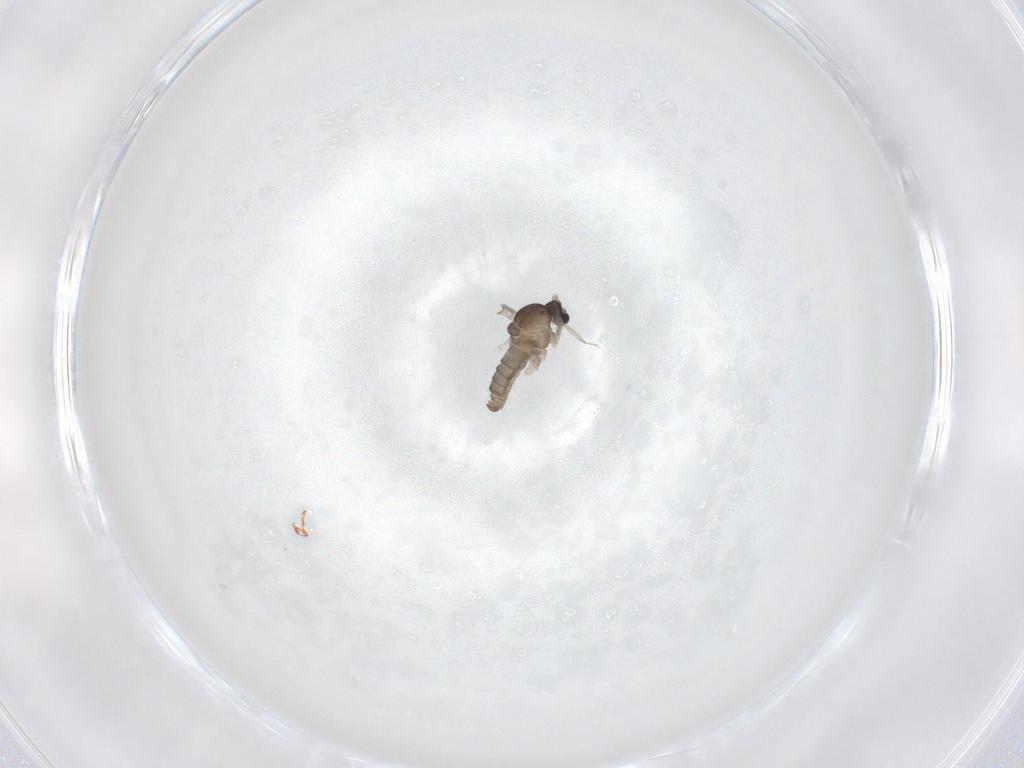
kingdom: Animalia
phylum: Arthropoda
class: Insecta
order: Diptera
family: Cecidomyiidae
